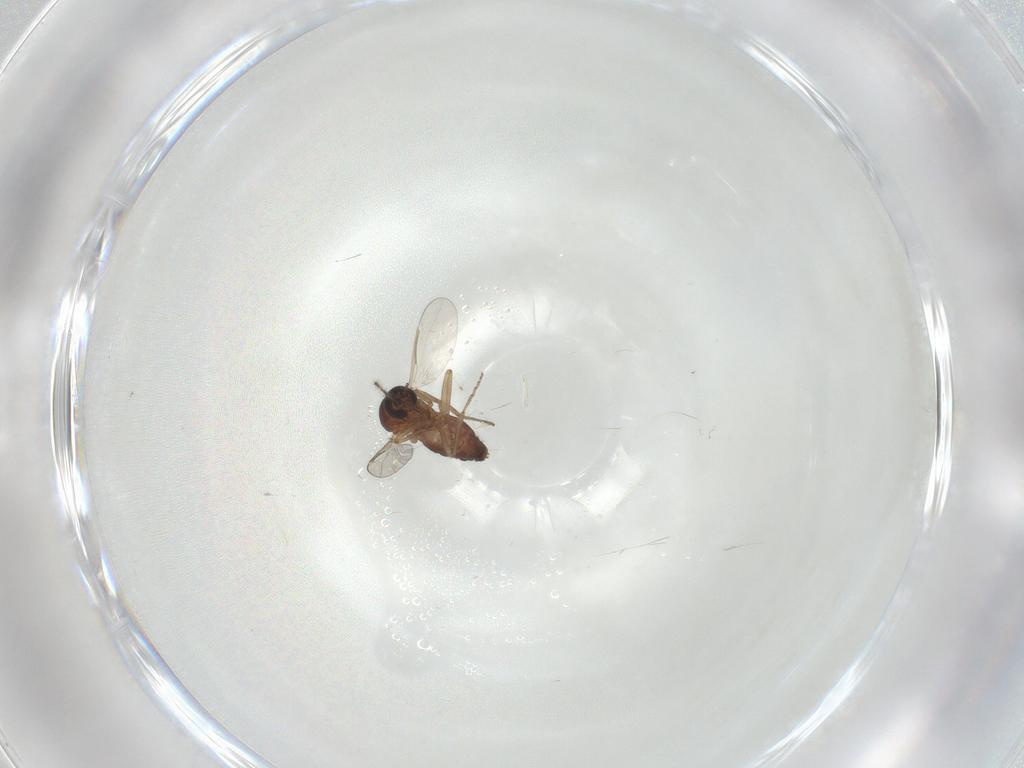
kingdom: Animalia
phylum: Arthropoda
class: Insecta
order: Diptera
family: Ceratopogonidae
